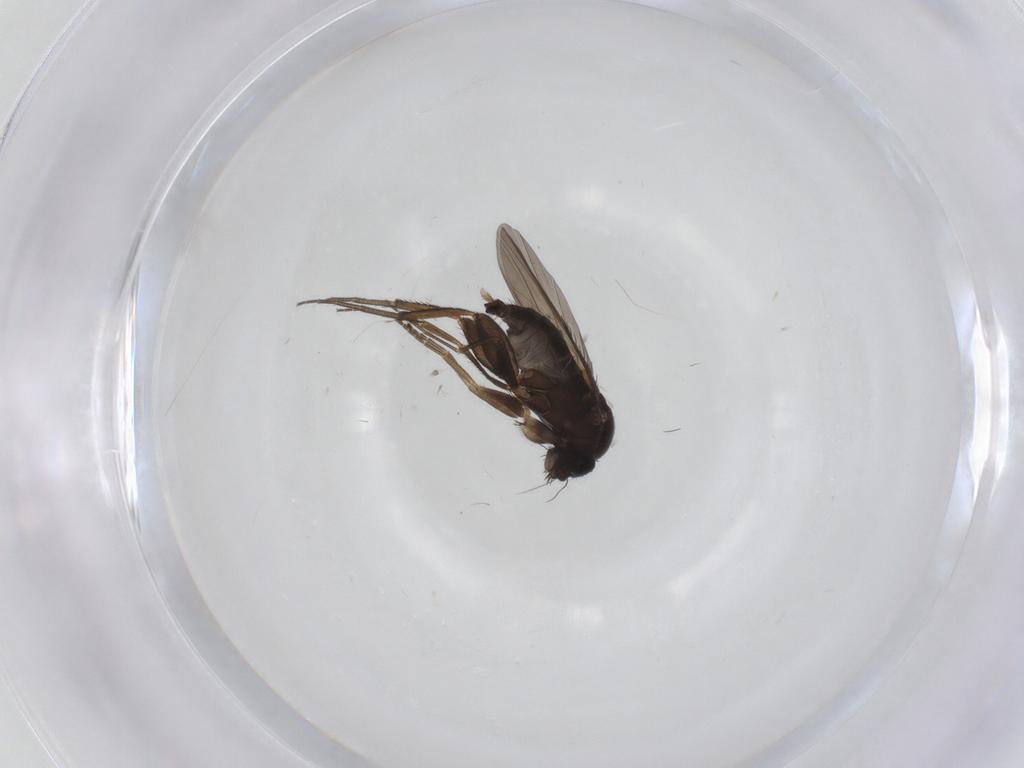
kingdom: Animalia
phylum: Arthropoda
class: Insecta
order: Diptera
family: Phoridae
